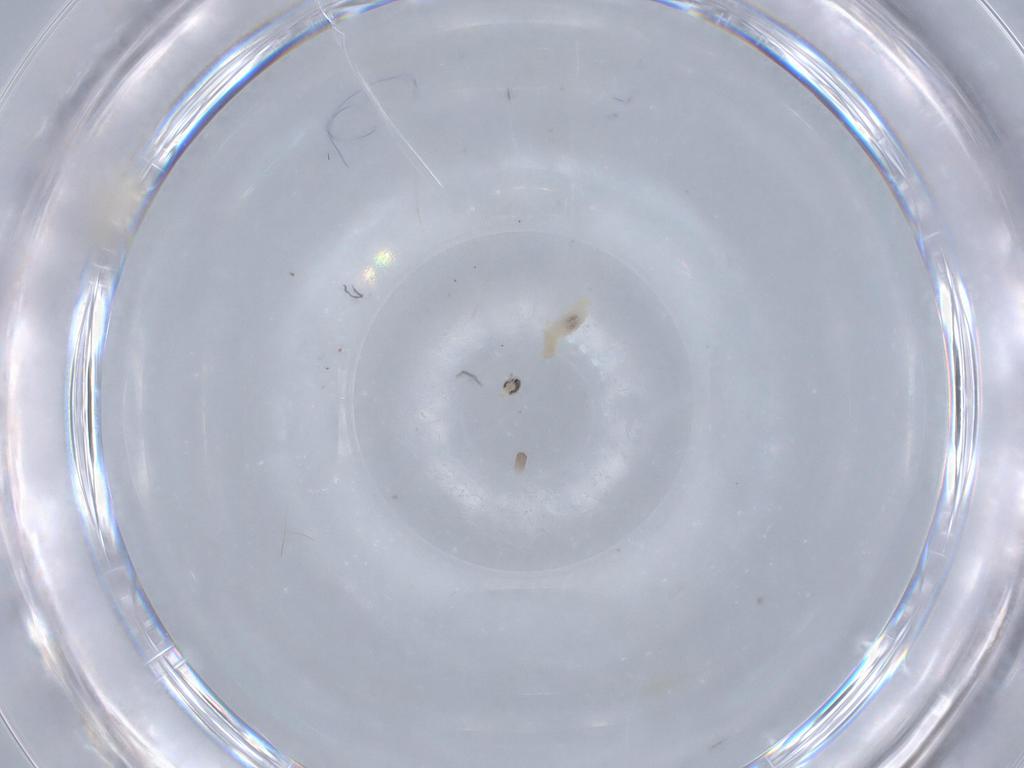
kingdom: Animalia
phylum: Arthropoda
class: Insecta
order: Diptera
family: Cecidomyiidae
